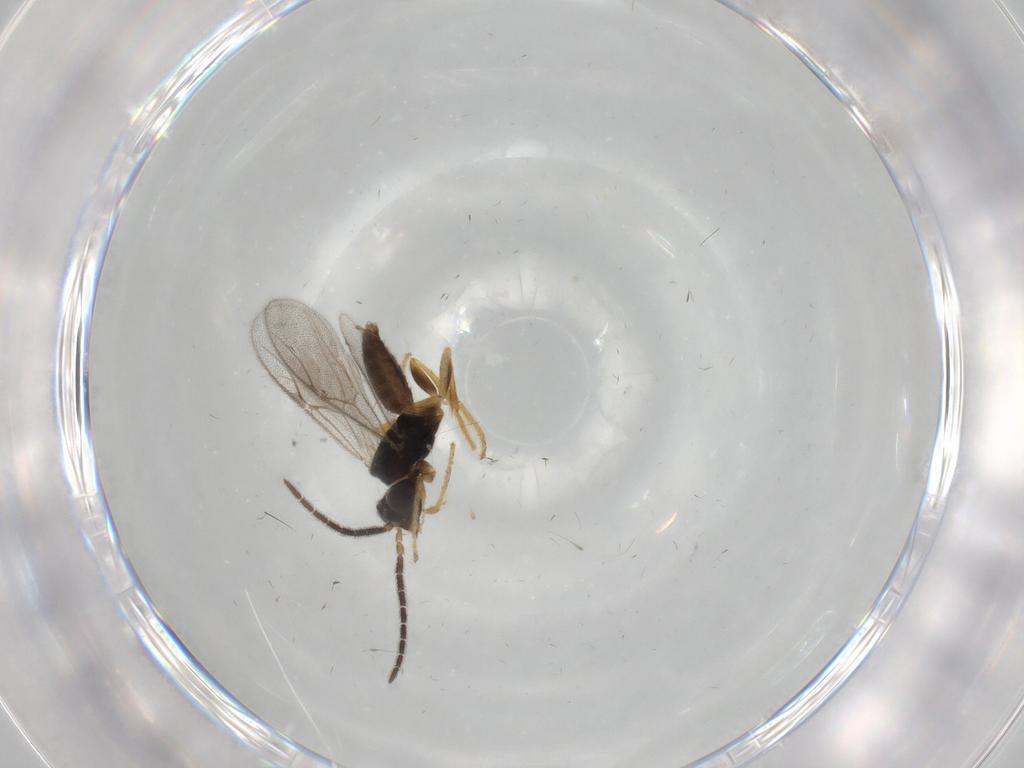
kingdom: Animalia
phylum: Arthropoda
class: Insecta
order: Hymenoptera
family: Dryinidae
